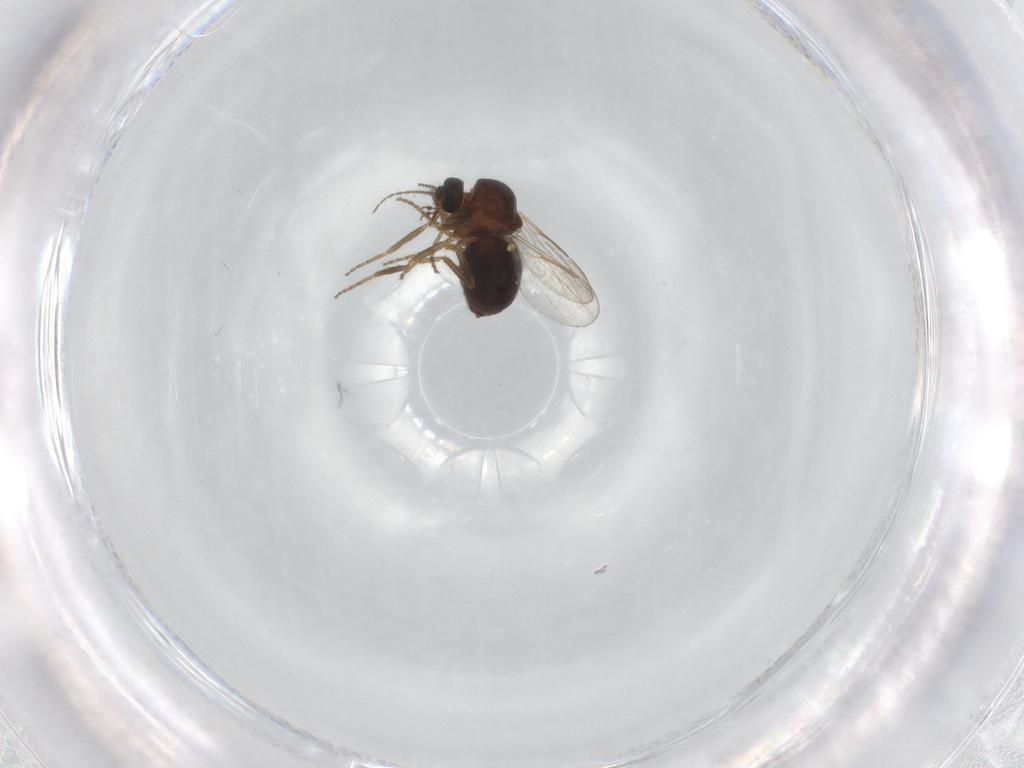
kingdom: Animalia
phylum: Arthropoda
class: Insecta
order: Diptera
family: Ceratopogonidae
